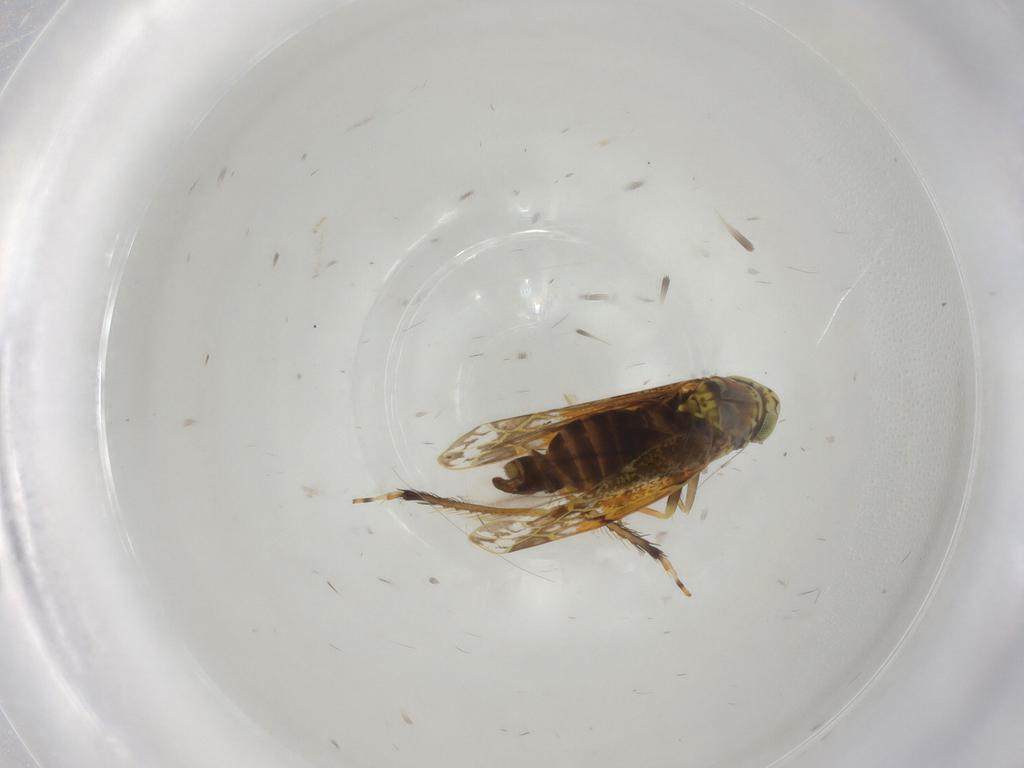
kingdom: Animalia
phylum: Arthropoda
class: Insecta
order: Hemiptera
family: Cicadellidae
